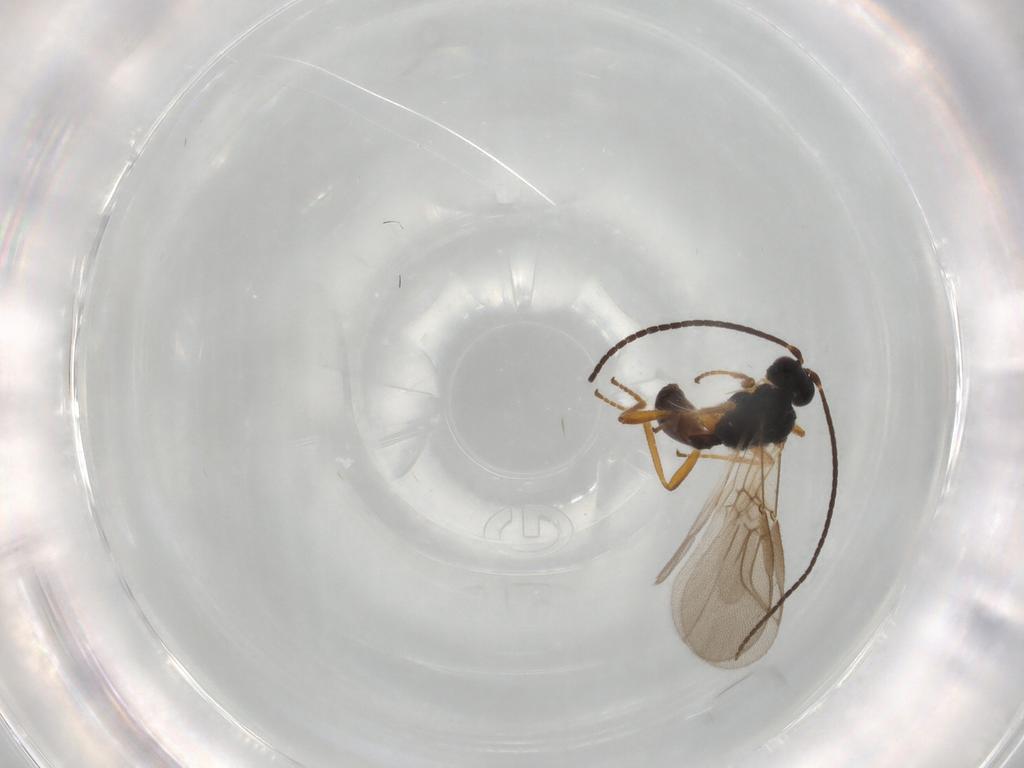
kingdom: Animalia
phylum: Arthropoda
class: Insecta
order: Hymenoptera
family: Braconidae
